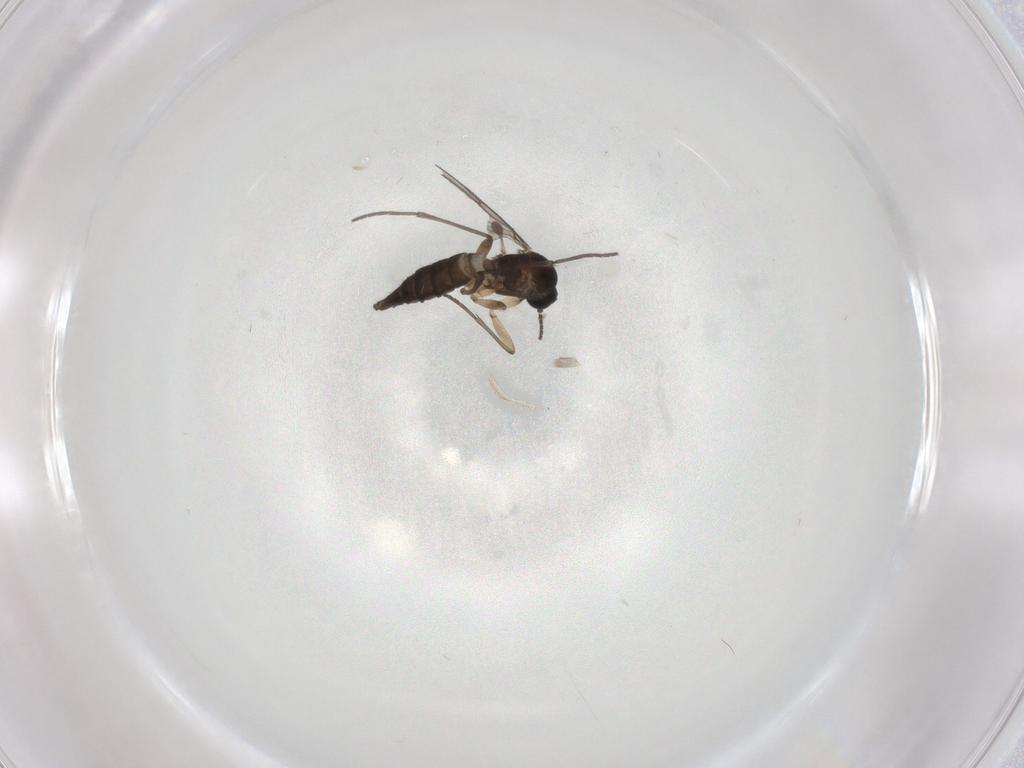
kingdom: Animalia
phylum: Arthropoda
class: Insecta
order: Diptera
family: Sciaridae
